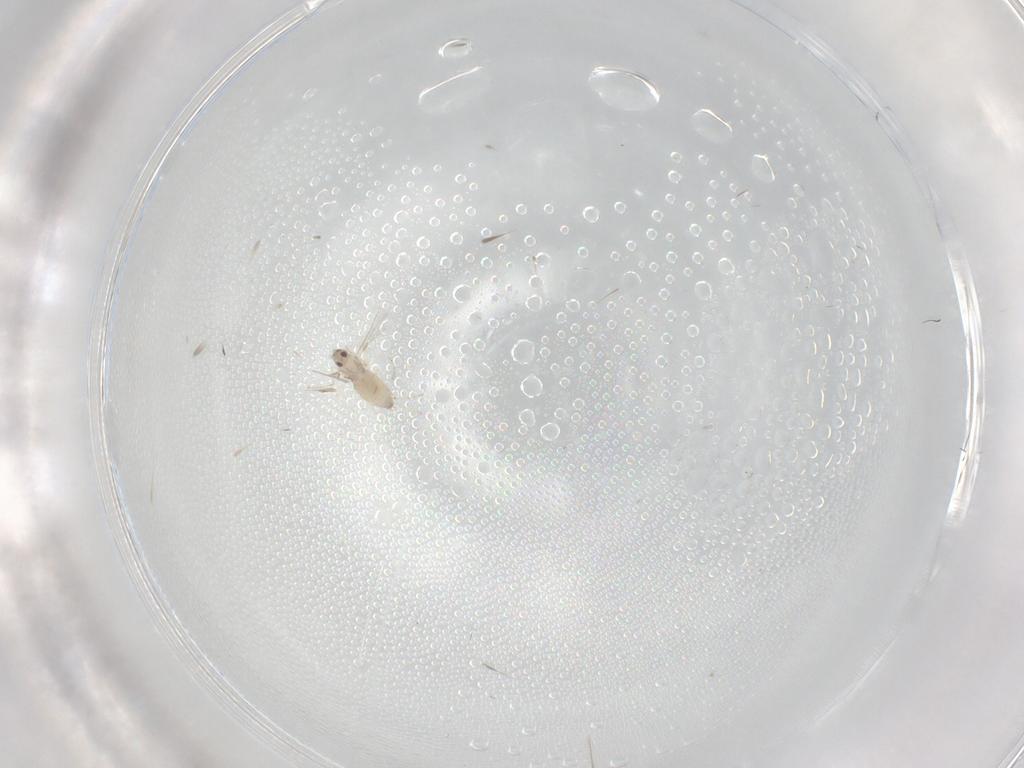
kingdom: Animalia
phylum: Arthropoda
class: Insecta
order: Diptera
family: Cecidomyiidae
